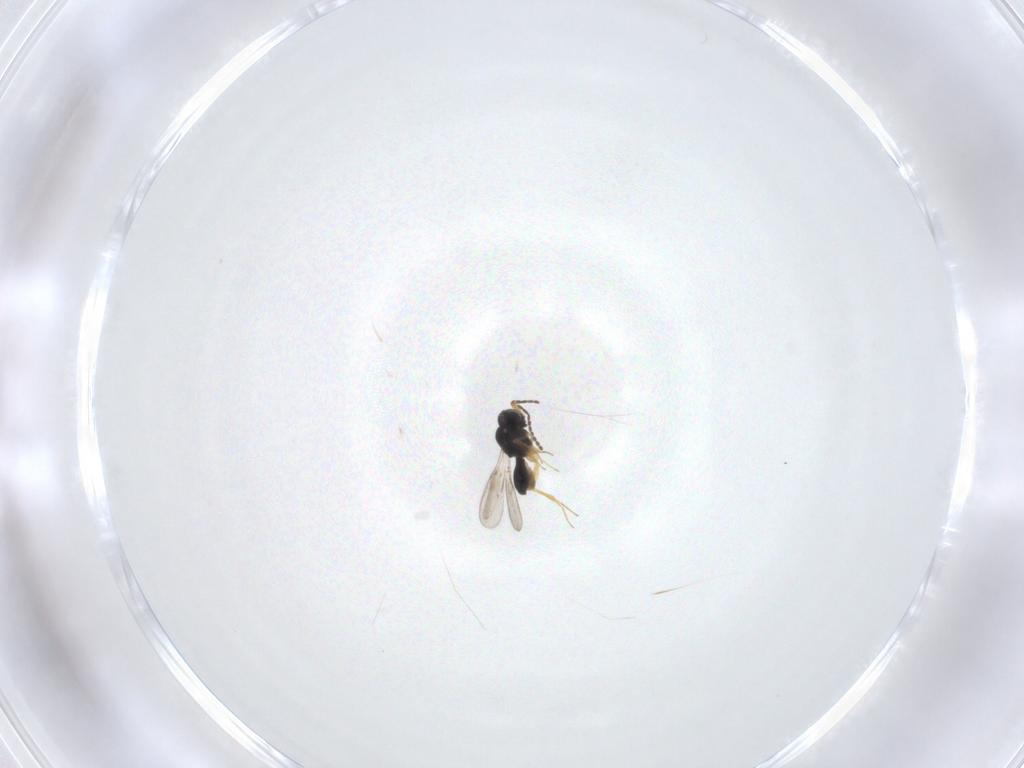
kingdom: Animalia
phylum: Arthropoda
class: Insecta
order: Hymenoptera
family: Scelionidae
